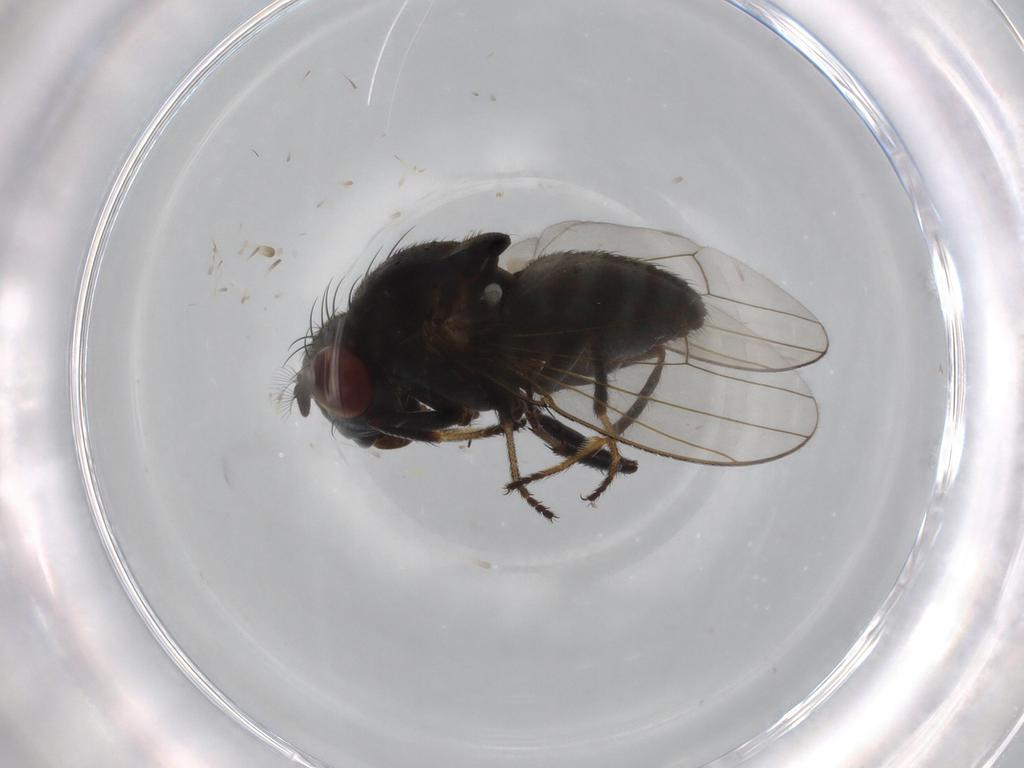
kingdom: Animalia
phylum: Arthropoda
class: Insecta
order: Diptera
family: Ephydridae
